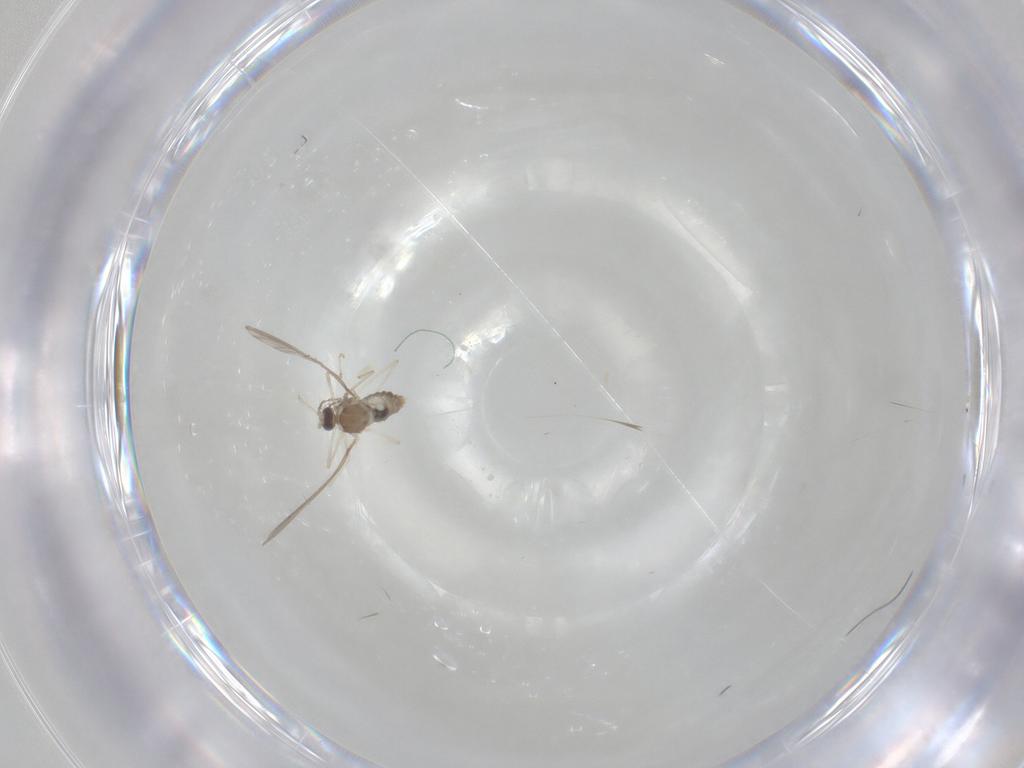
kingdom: Animalia
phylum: Arthropoda
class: Insecta
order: Diptera
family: Cecidomyiidae
